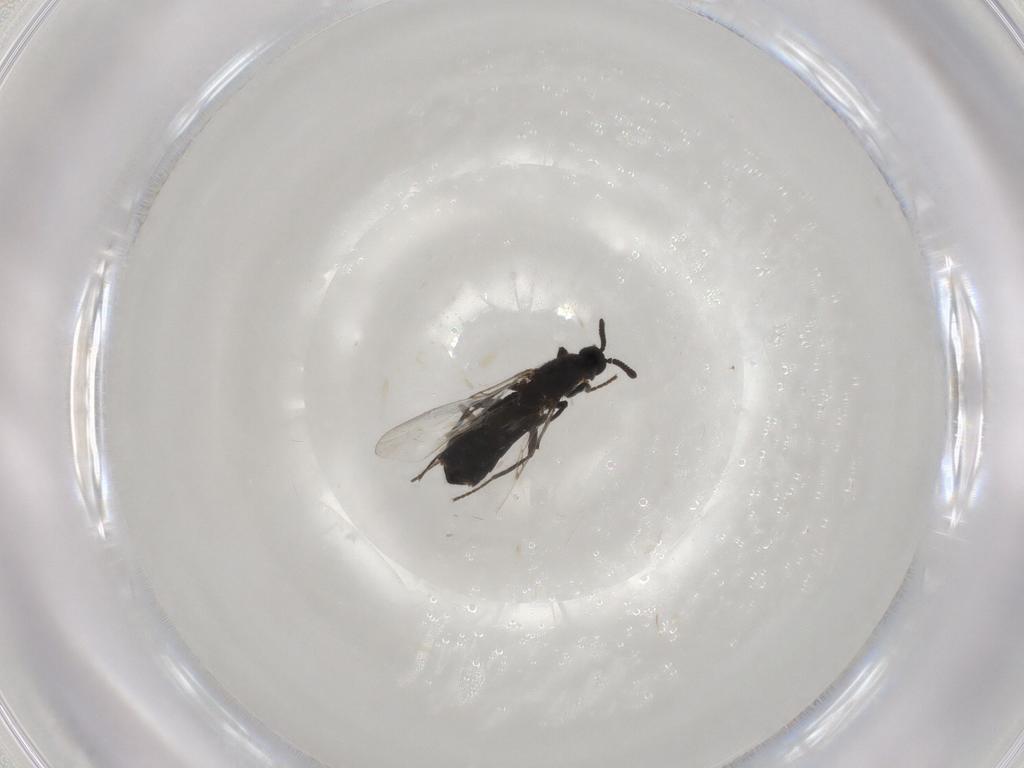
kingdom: Animalia
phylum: Arthropoda
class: Insecta
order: Diptera
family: Scatopsidae
